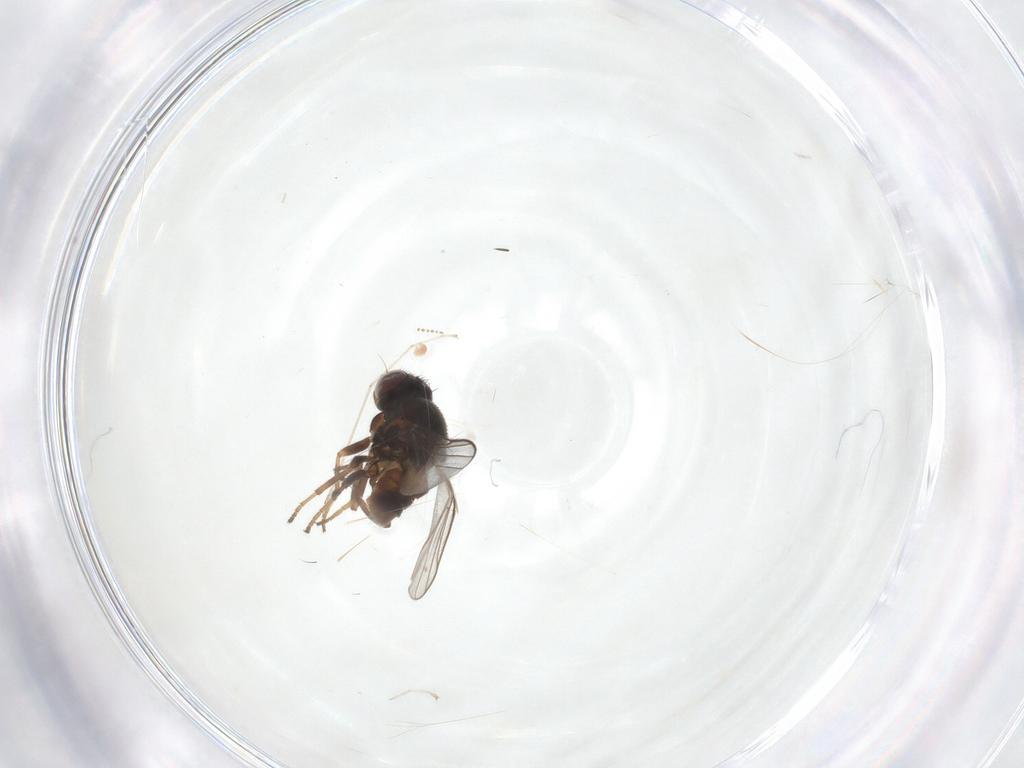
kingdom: Animalia
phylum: Arthropoda
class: Insecta
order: Diptera
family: Chloropidae
